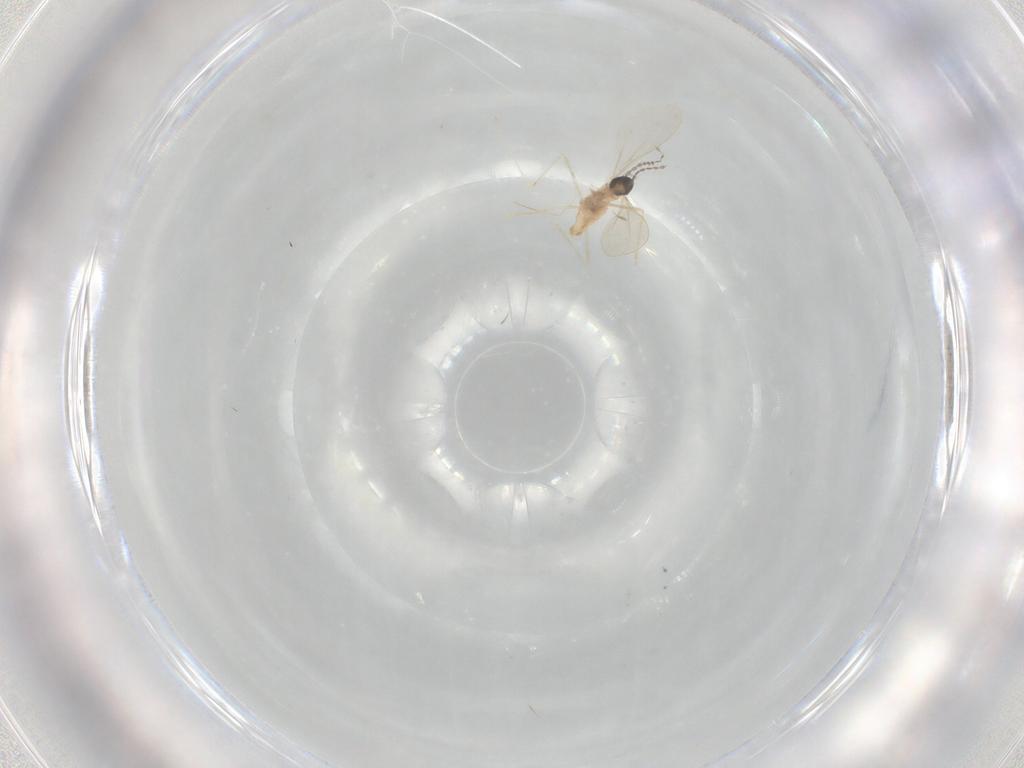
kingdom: Animalia
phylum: Arthropoda
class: Insecta
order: Diptera
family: Cecidomyiidae
